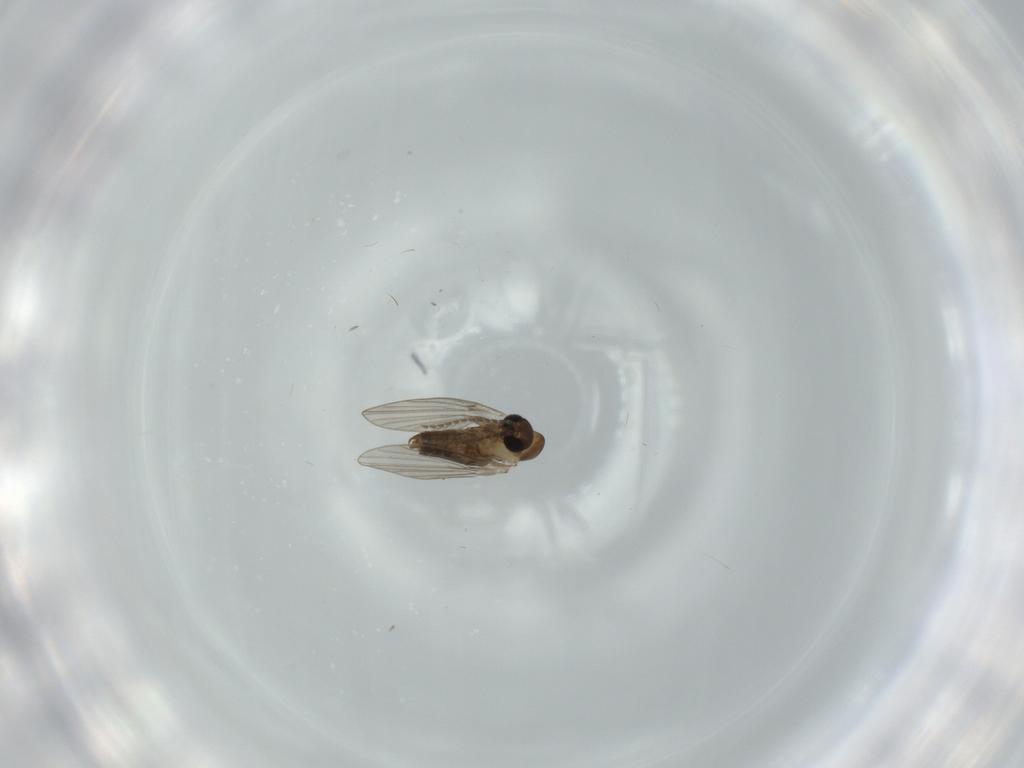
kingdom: Animalia
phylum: Arthropoda
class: Insecta
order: Diptera
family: Phoridae
